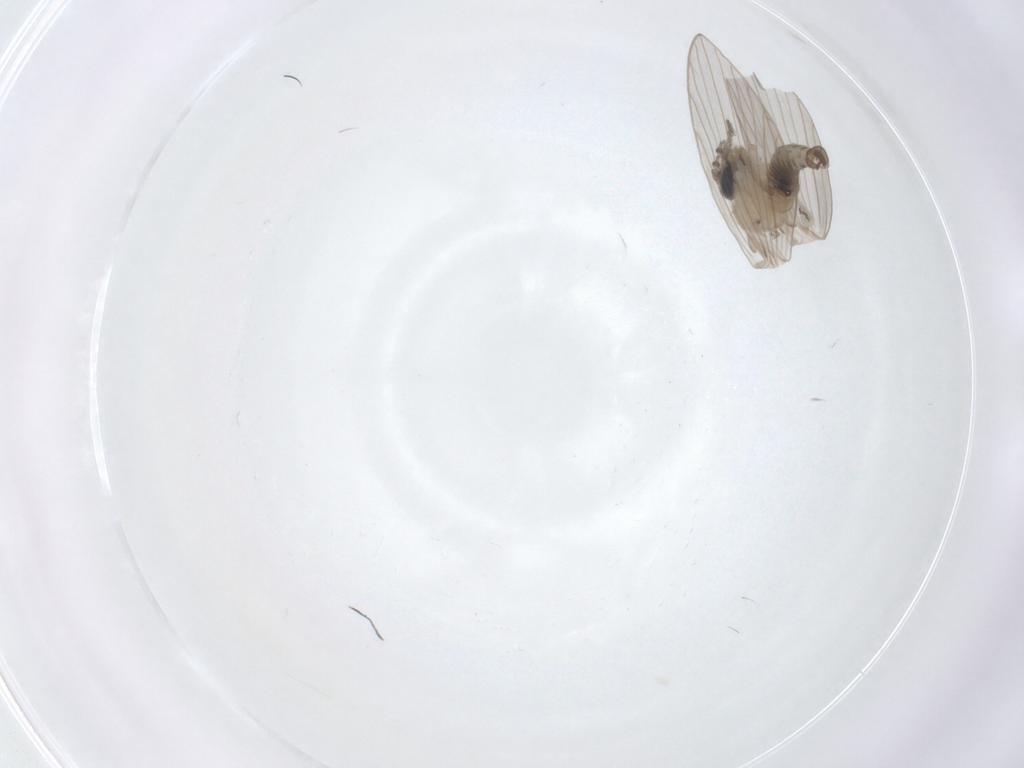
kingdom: Animalia
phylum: Arthropoda
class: Insecta
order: Diptera
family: Psychodidae
